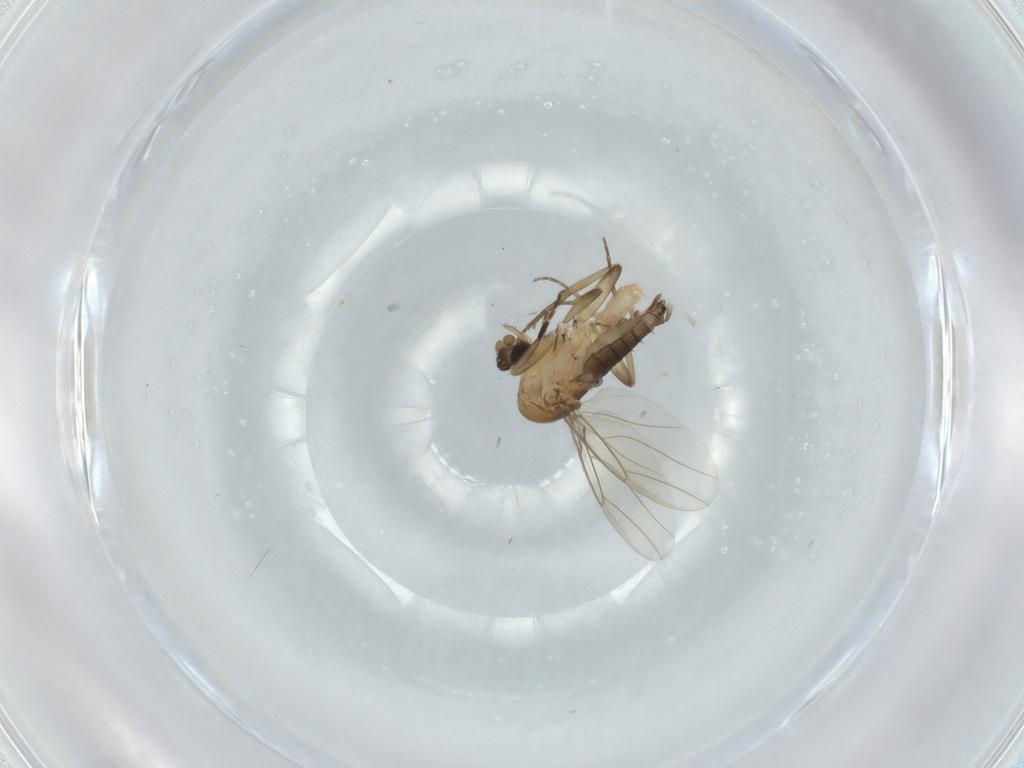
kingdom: Animalia
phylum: Arthropoda
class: Insecta
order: Diptera
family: Phoridae
